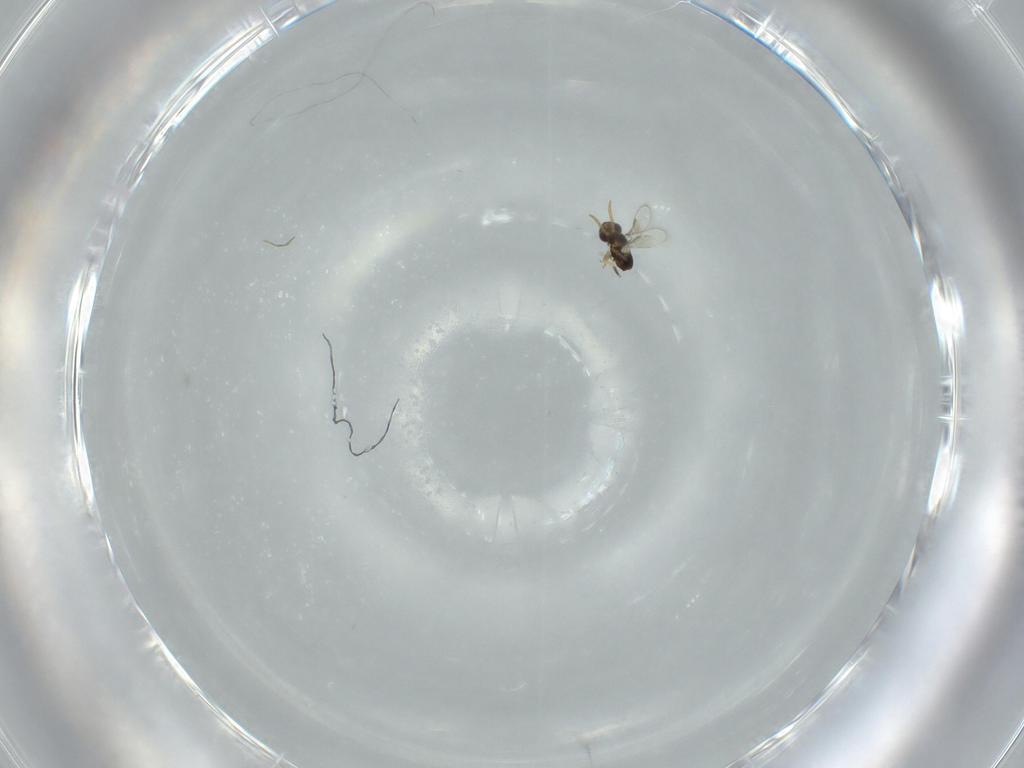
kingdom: Animalia
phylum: Arthropoda
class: Insecta
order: Hymenoptera
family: Aphelinidae
